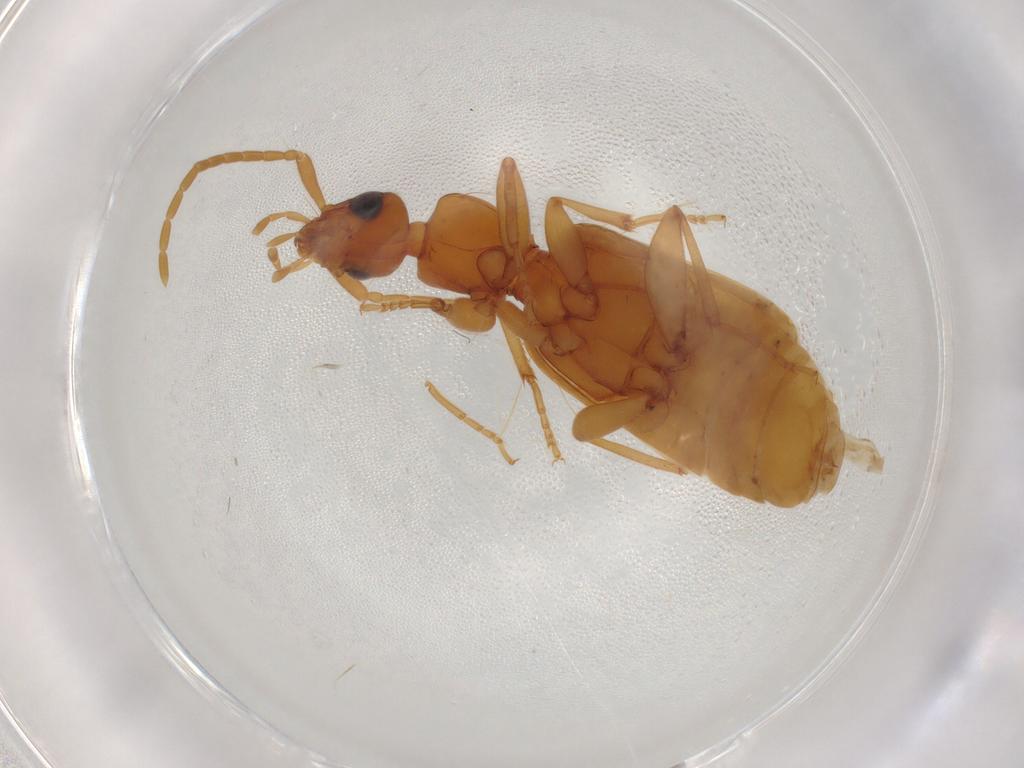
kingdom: Animalia
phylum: Arthropoda
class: Insecta
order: Coleoptera
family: Carabidae
